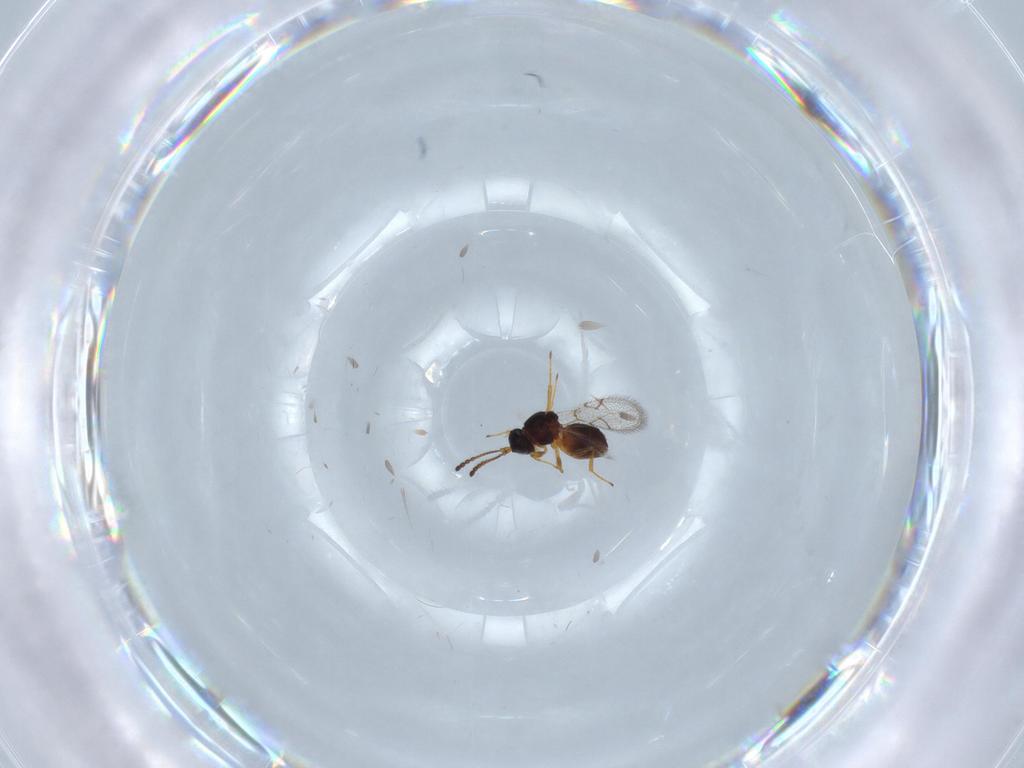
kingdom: Animalia
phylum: Arthropoda
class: Insecta
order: Hymenoptera
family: Figitidae
